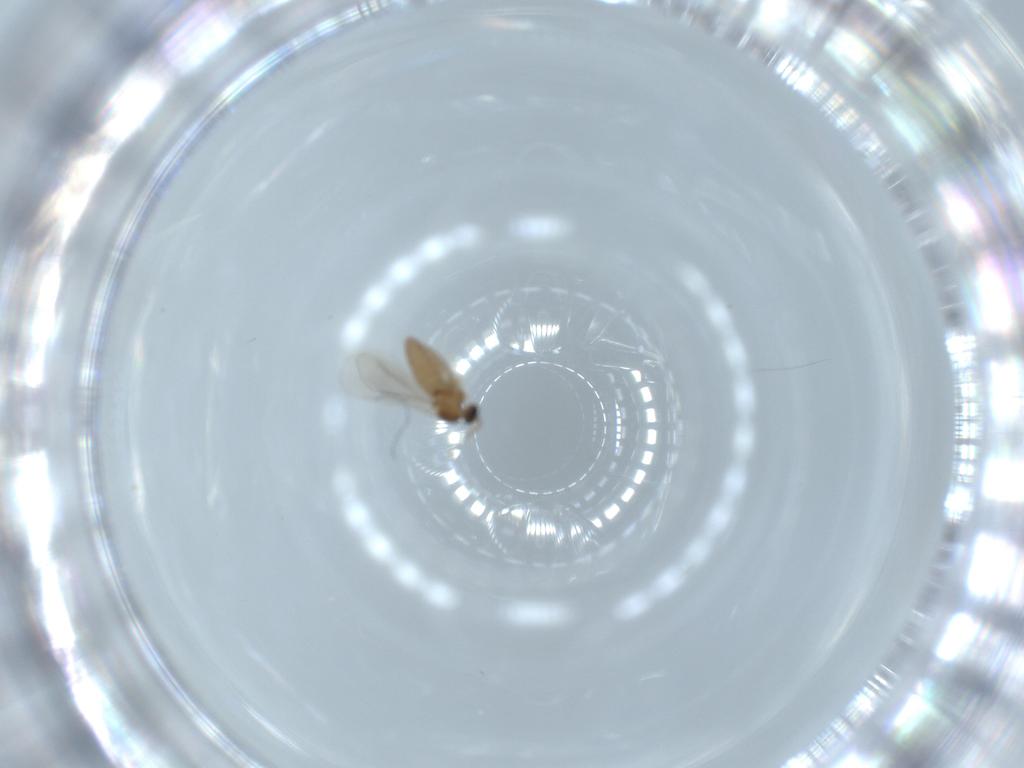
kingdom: Animalia
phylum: Arthropoda
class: Insecta
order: Diptera
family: Cecidomyiidae
